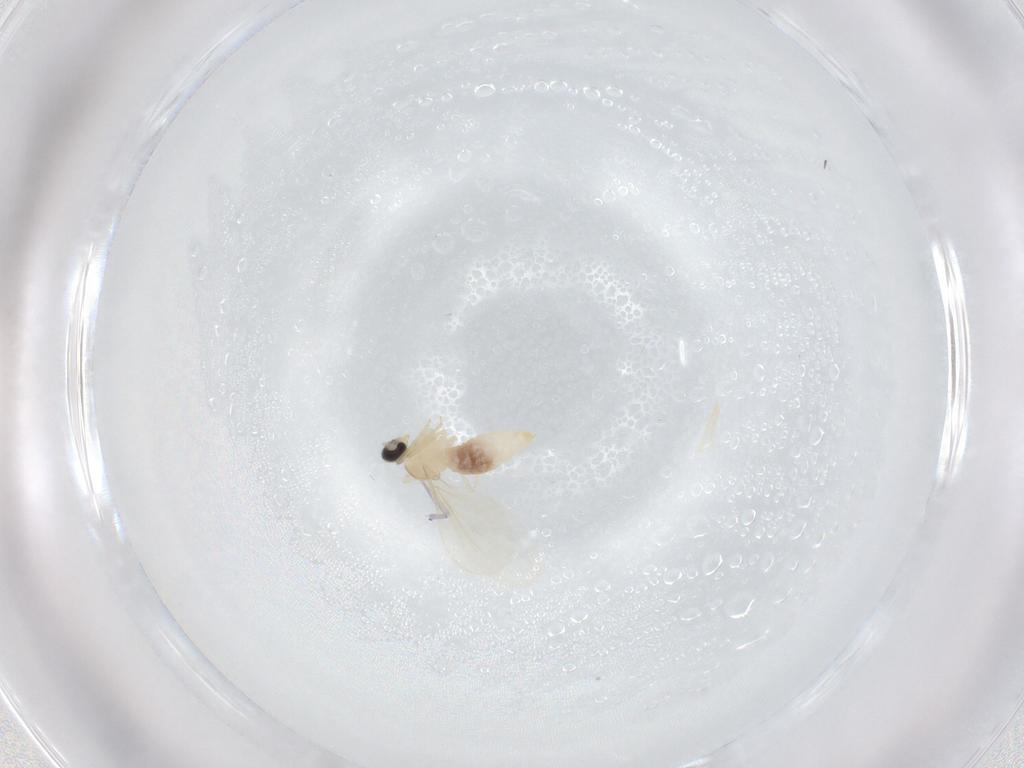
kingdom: Animalia
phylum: Arthropoda
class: Insecta
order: Diptera
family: Cecidomyiidae
